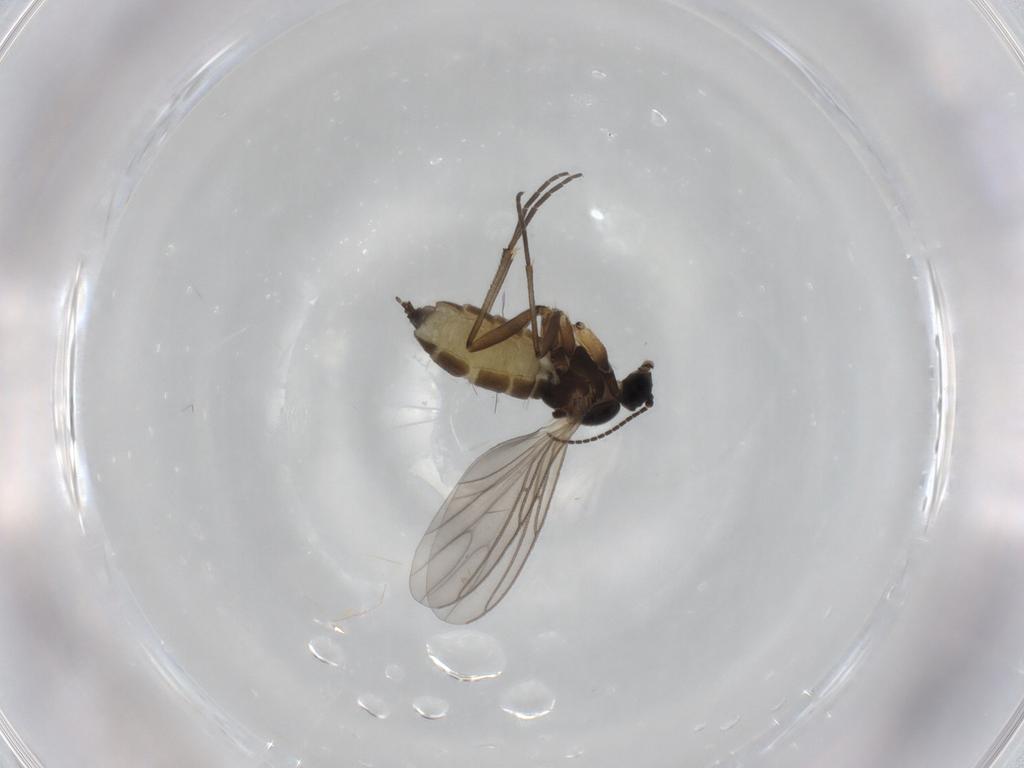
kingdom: Animalia
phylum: Arthropoda
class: Insecta
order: Diptera
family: Sciaridae
